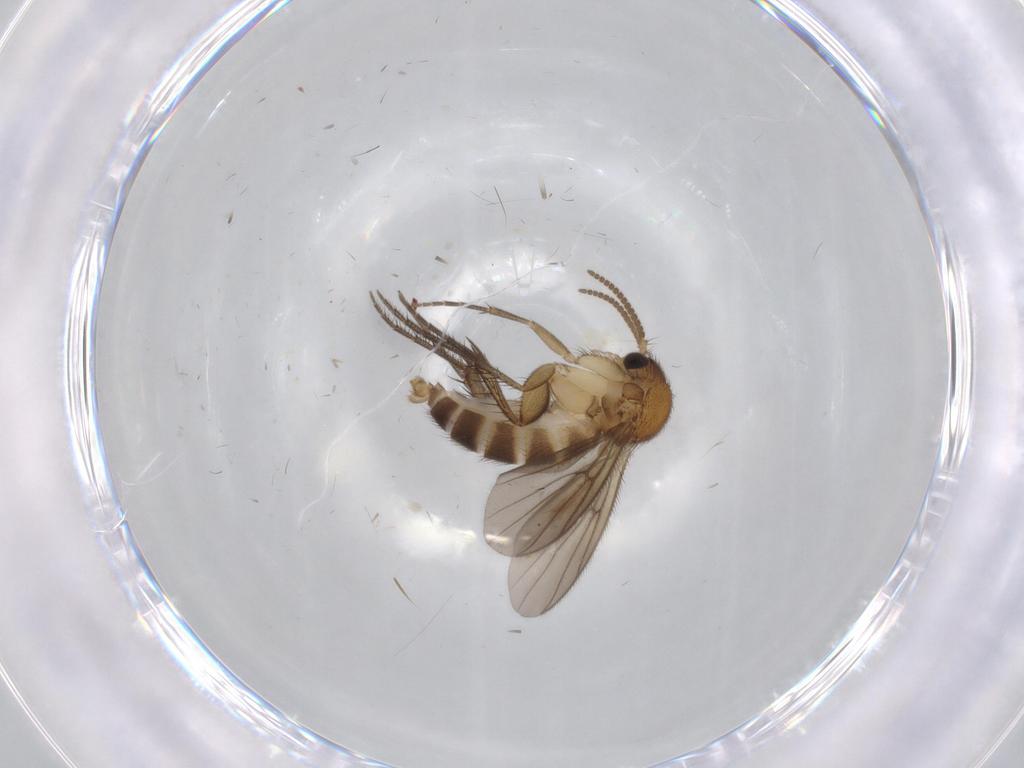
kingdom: Animalia
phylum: Arthropoda
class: Insecta
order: Diptera
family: Chironomidae
